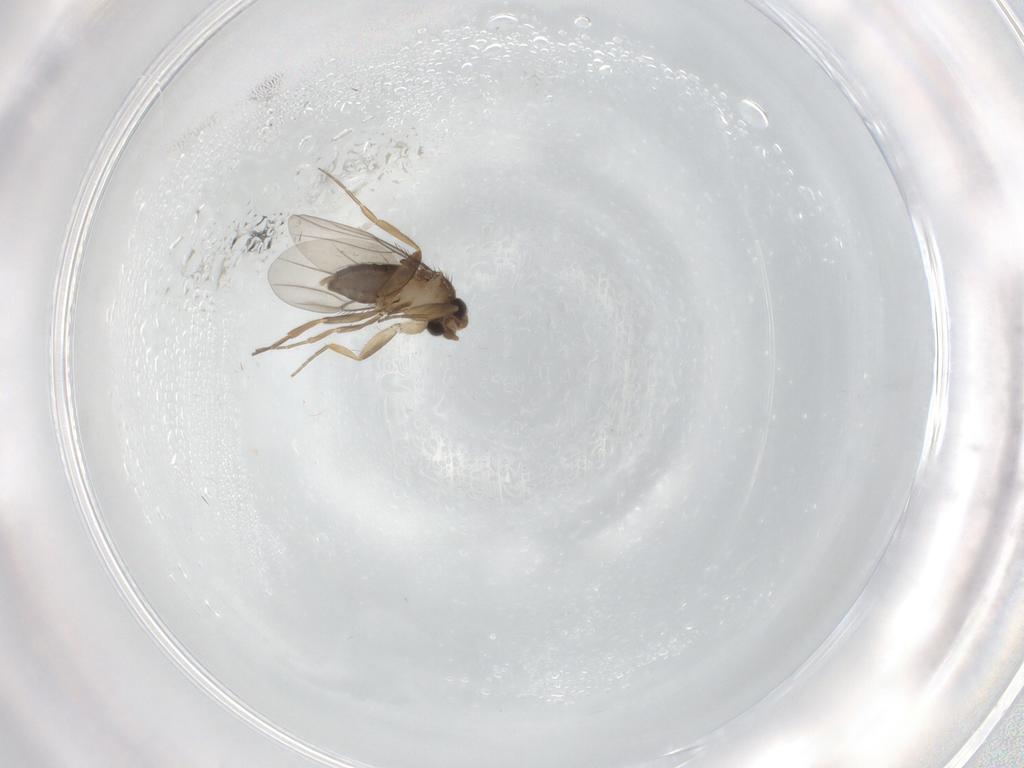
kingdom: Animalia
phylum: Arthropoda
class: Insecta
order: Diptera
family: Phoridae
